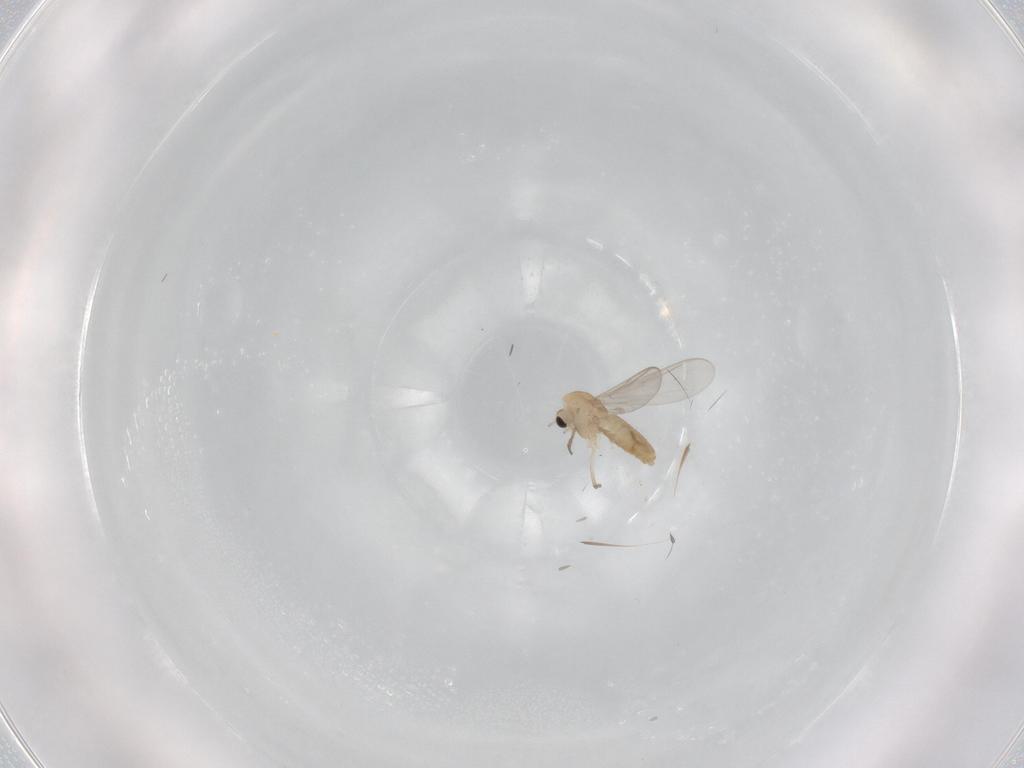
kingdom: Animalia
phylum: Arthropoda
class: Insecta
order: Diptera
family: Chironomidae
